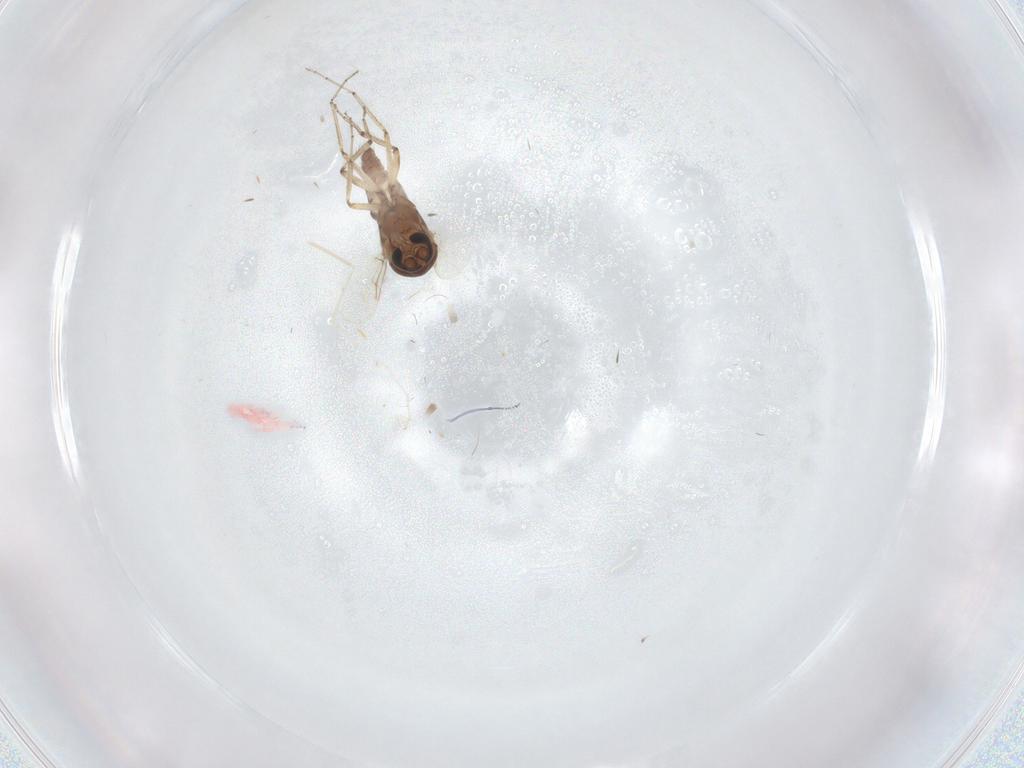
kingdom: Animalia
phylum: Arthropoda
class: Insecta
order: Diptera
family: Ceratopogonidae
